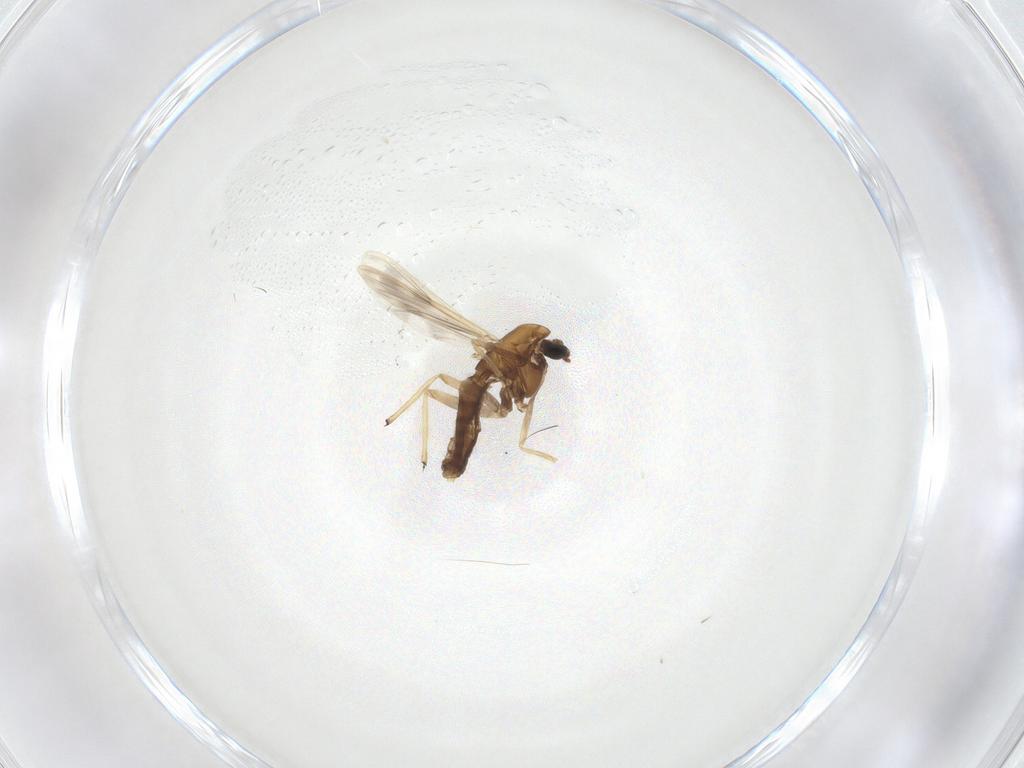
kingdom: Animalia
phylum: Arthropoda
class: Insecta
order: Diptera
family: Chironomidae
